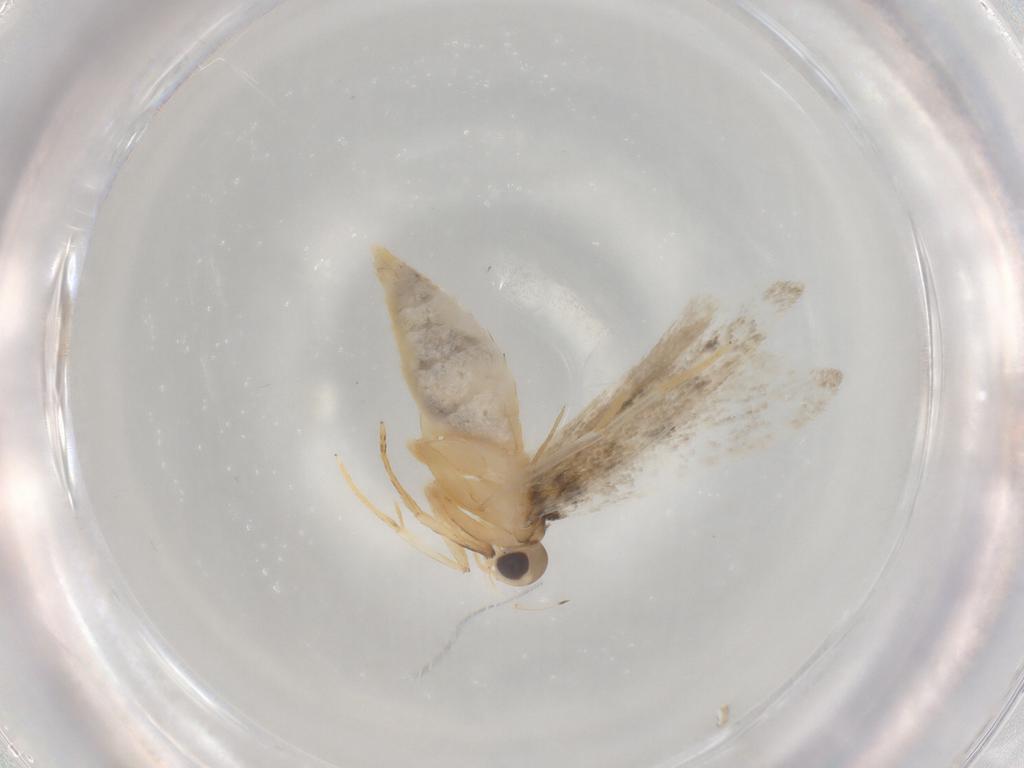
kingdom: Animalia
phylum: Arthropoda
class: Insecta
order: Lepidoptera
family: Autostichidae
